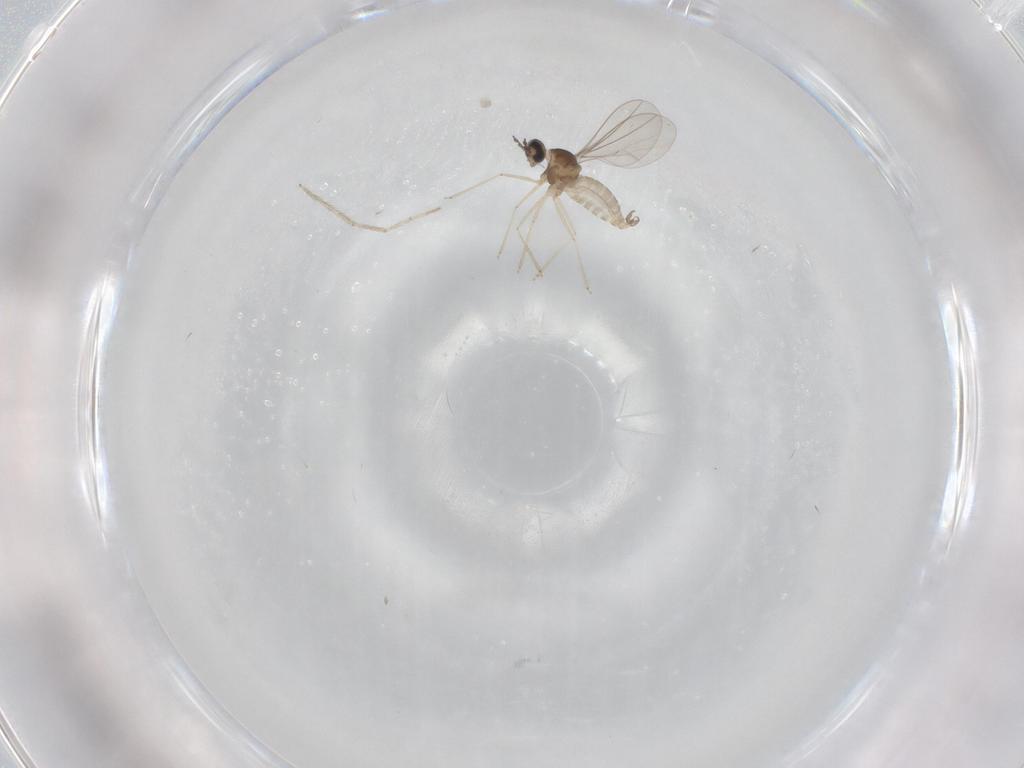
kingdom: Animalia
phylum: Arthropoda
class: Insecta
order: Diptera
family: Chironomidae
